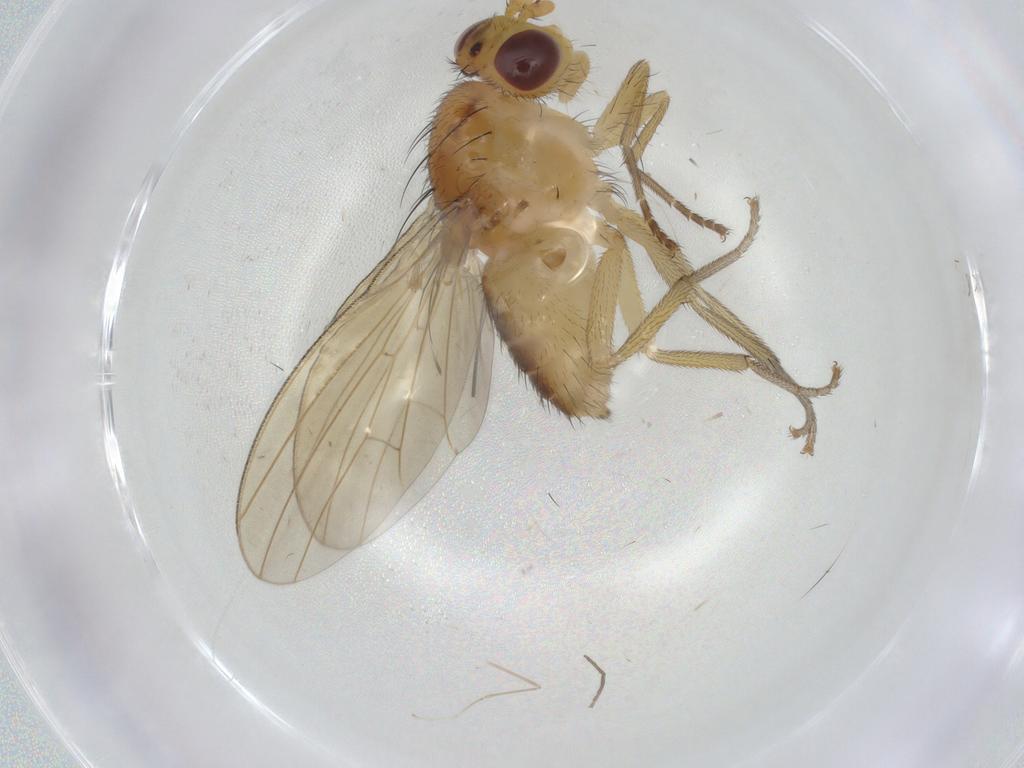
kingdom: Animalia
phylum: Arthropoda
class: Insecta
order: Diptera
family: Chironomidae
